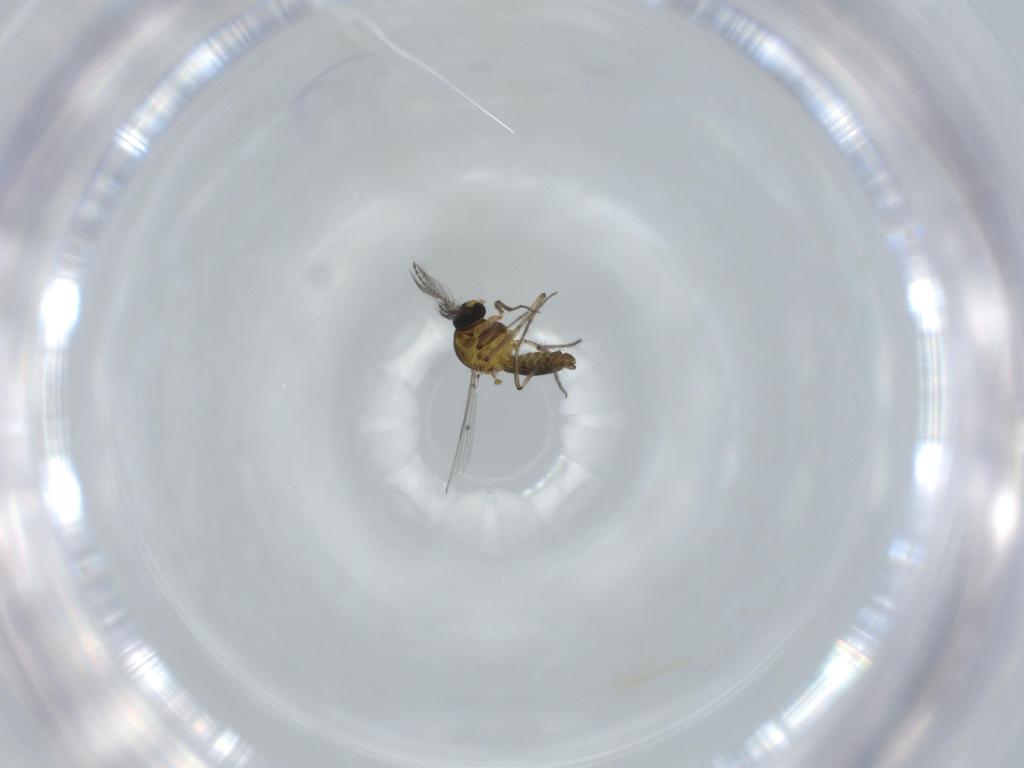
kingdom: Animalia
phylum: Arthropoda
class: Insecta
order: Diptera
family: Ceratopogonidae
